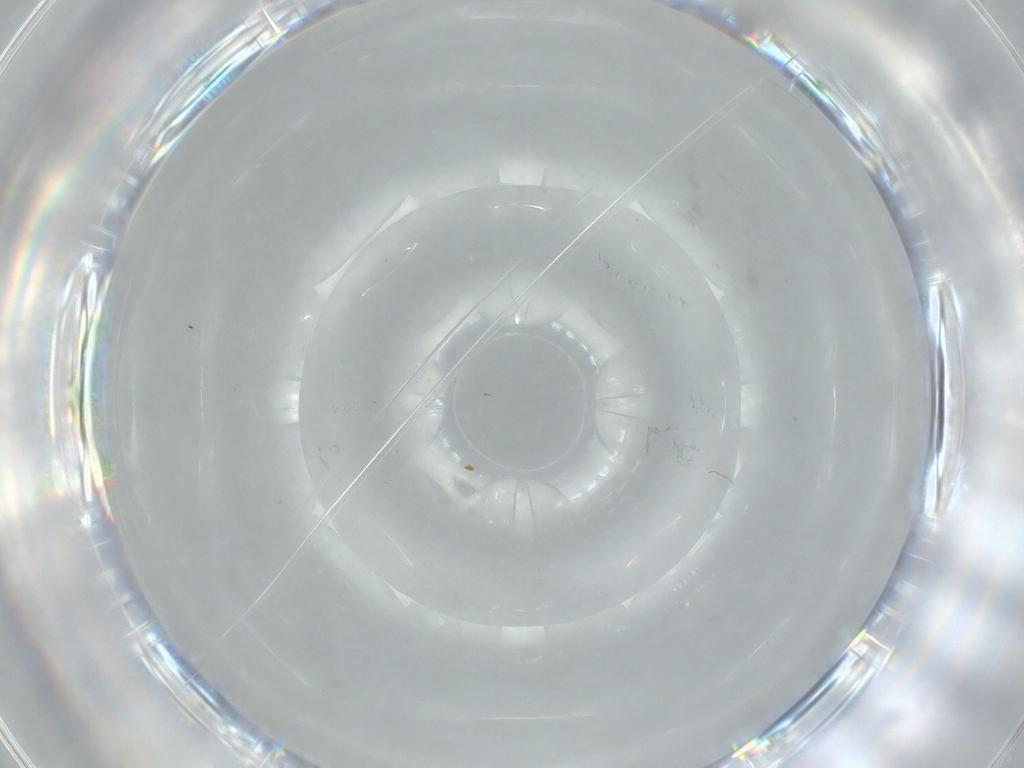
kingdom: Animalia
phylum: Arthropoda
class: Insecta
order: Diptera
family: Cecidomyiidae
